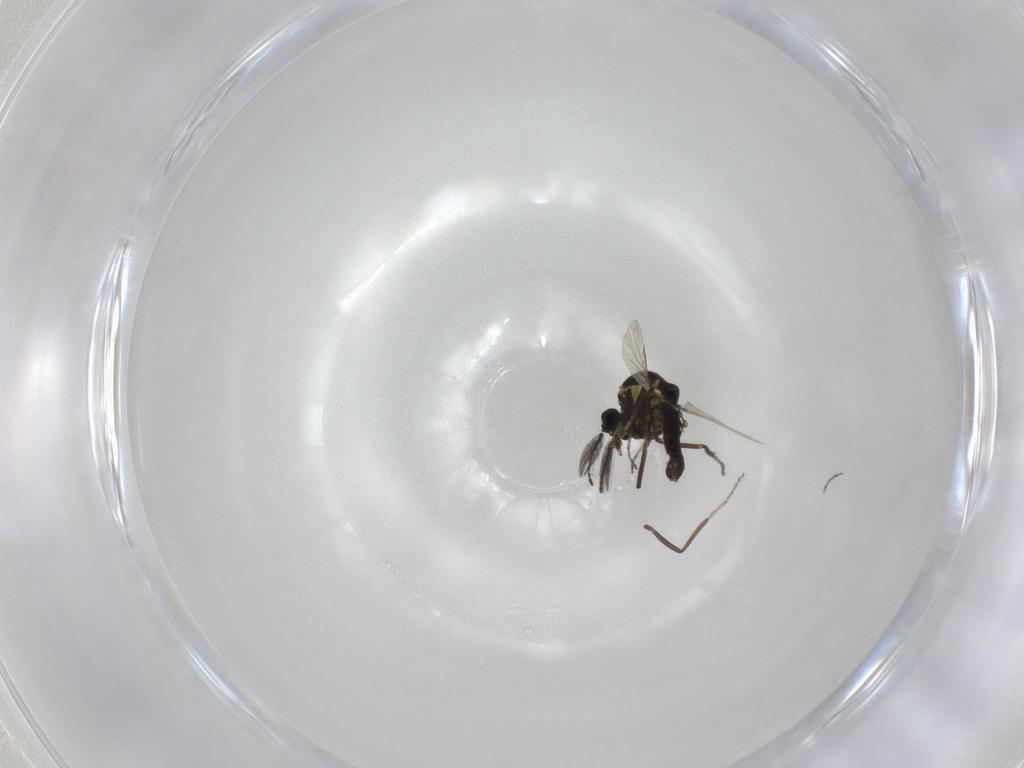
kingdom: Animalia
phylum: Arthropoda
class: Insecta
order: Diptera
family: Ceratopogonidae
